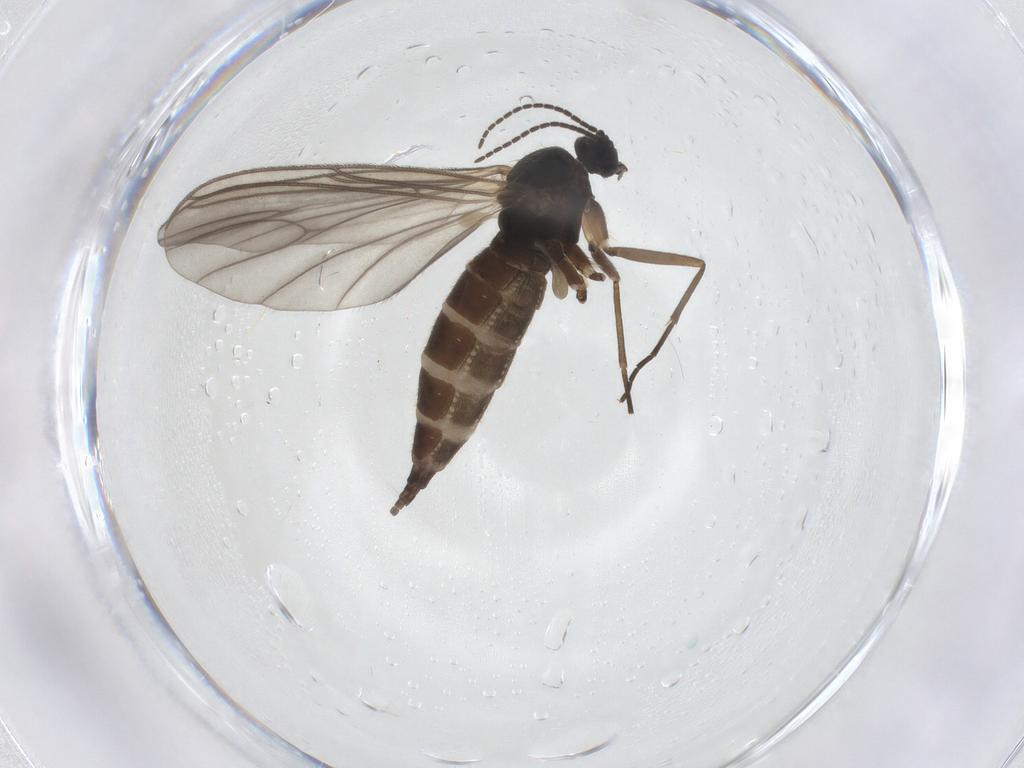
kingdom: Animalia
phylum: Arthropoda
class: Insecta
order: Diptera
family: Sciaridae
